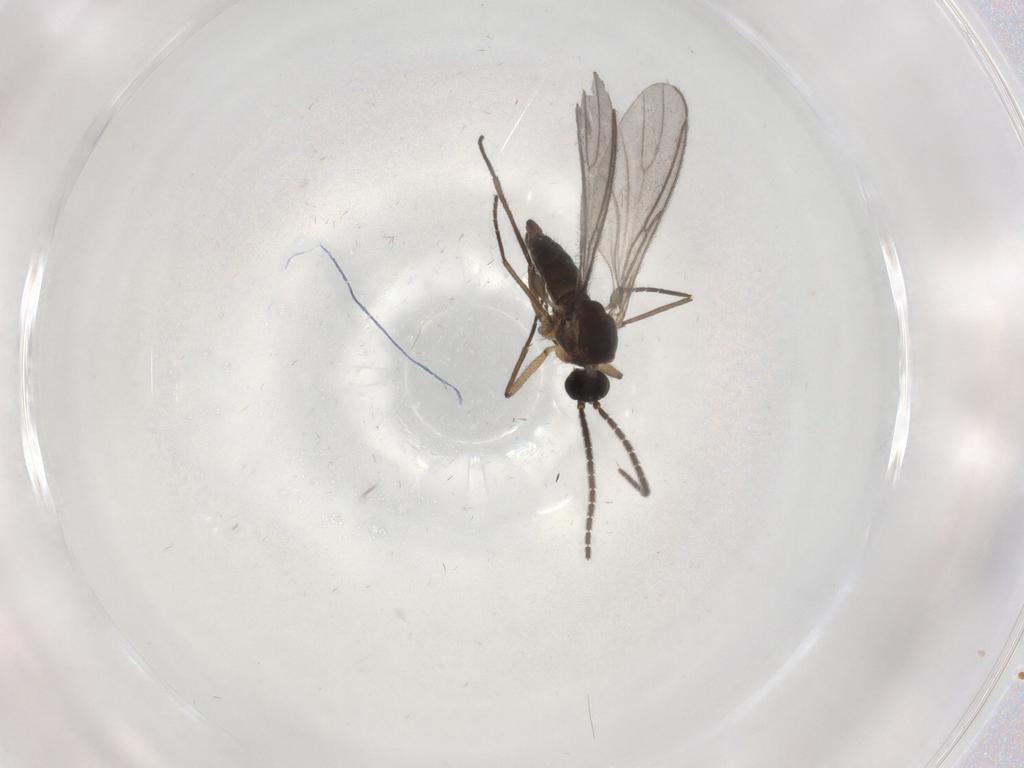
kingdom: Animalia
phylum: Arthropoda
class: Insecta
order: Diptera
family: Sciaridae
